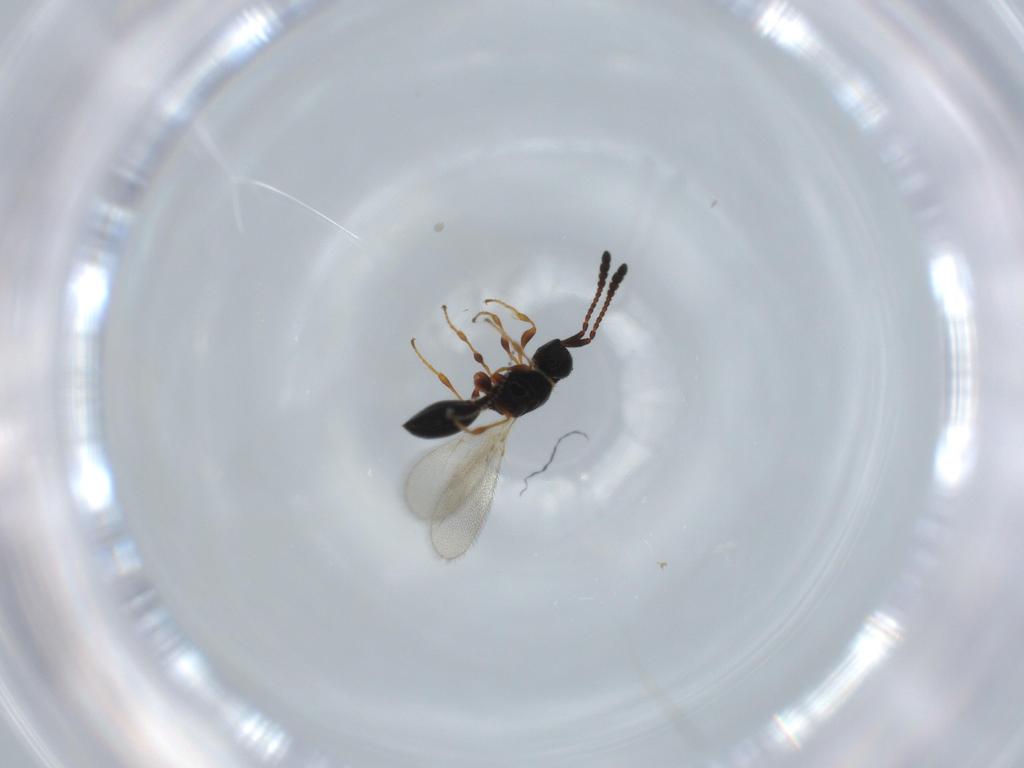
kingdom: Animalia
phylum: Arthropoda
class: Insecta
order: Hymenoptera
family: Diapriidae
